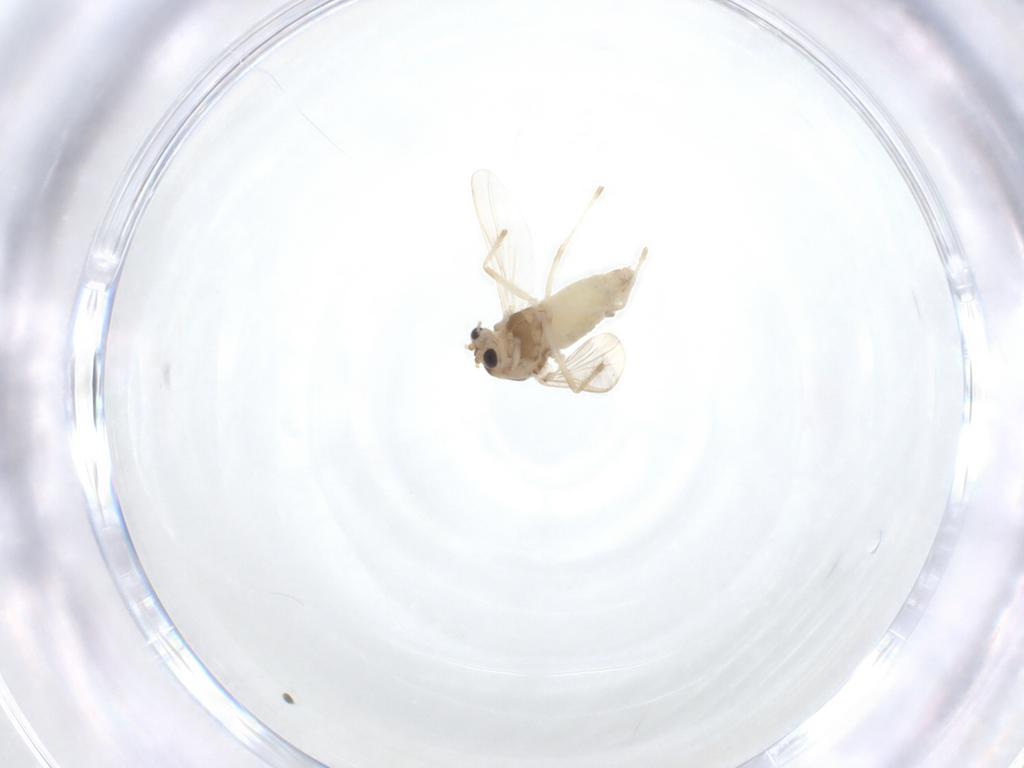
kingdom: Animalia
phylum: Arthropoda
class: Insecta
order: Diptera
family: Chironomidae
